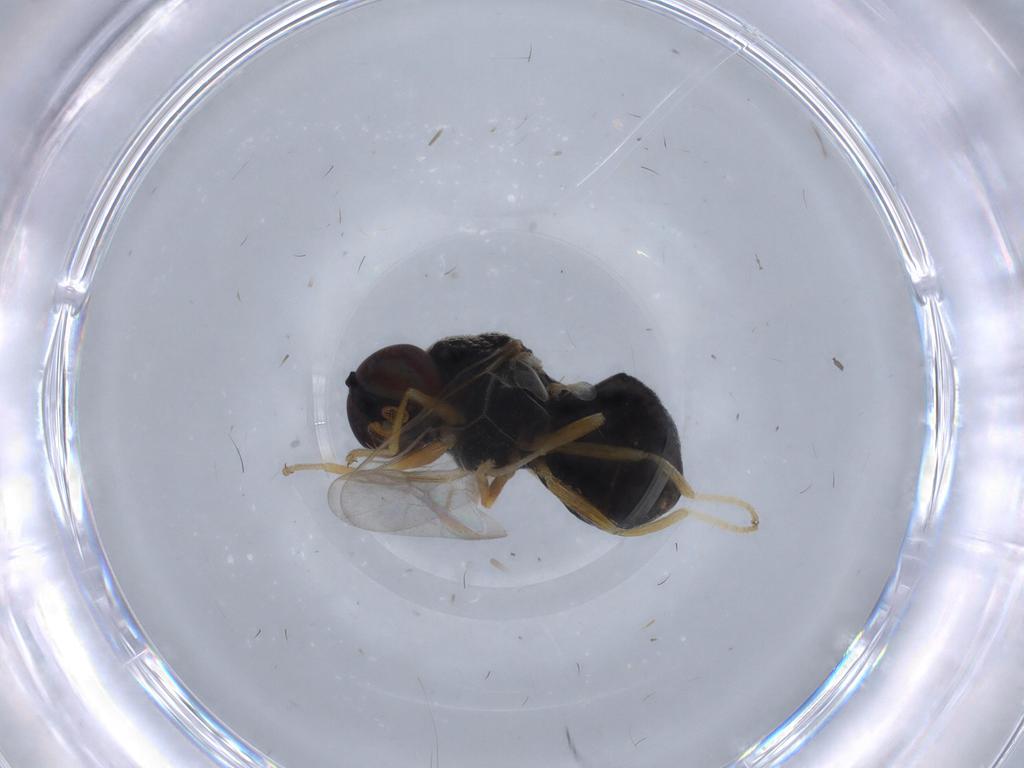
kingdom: Animalia
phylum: Arthropoda
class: Insecta
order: Diptera
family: Stratiomyidae
